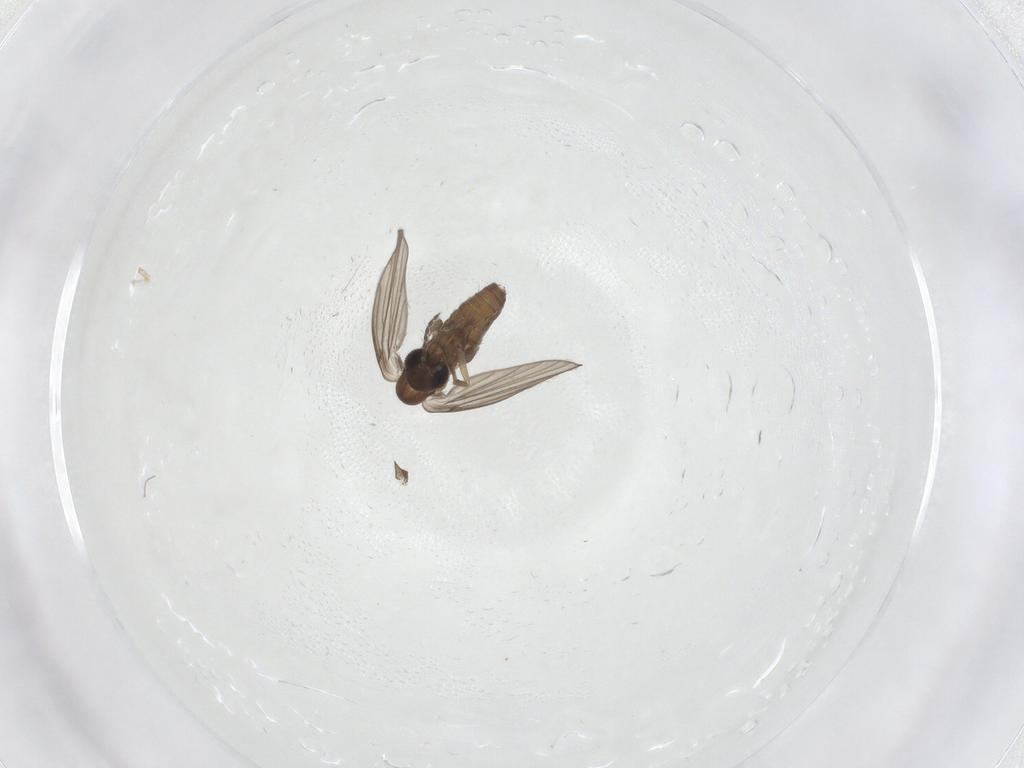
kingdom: Animalia
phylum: Arthropoda
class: Insecta
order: Diptera
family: Psychodidae
